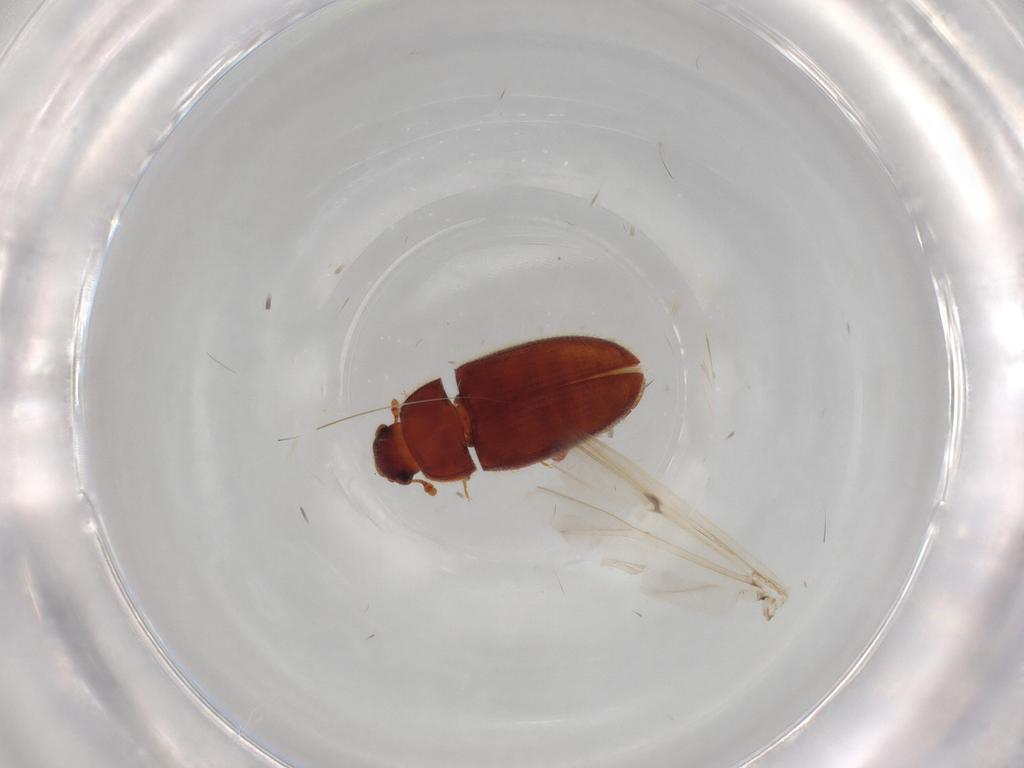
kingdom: Animalia
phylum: Arthropoda
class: Insecta
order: Coleoptera
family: Biphyllidae
